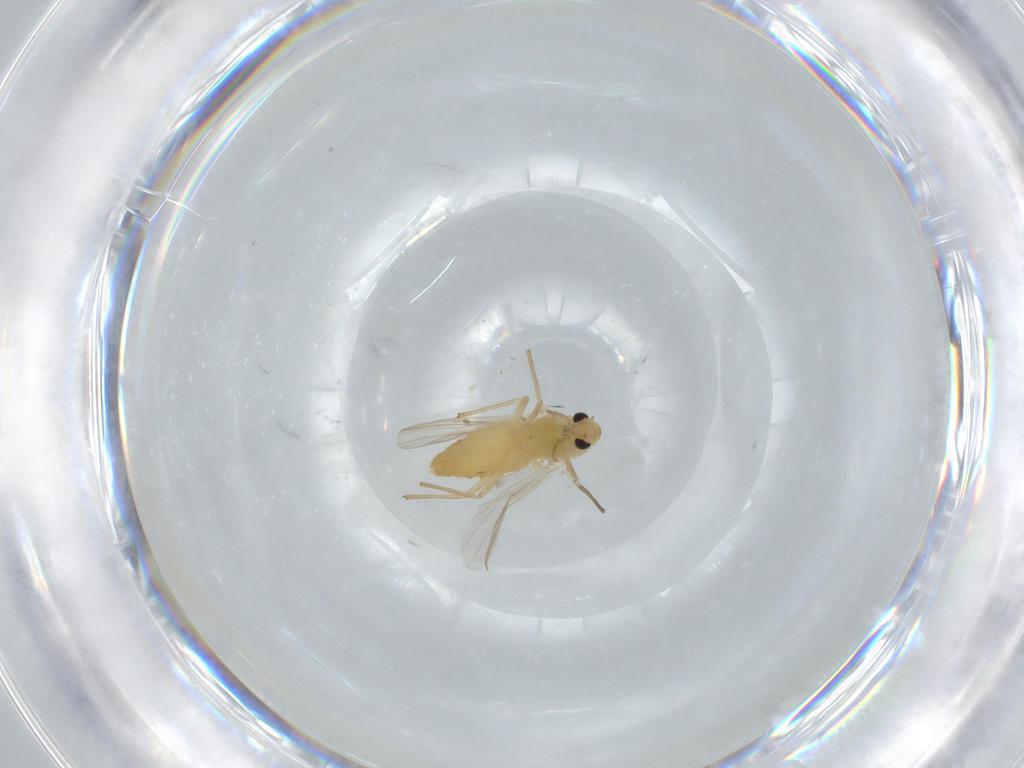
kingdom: Animalia
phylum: Arthropoda
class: Insecta
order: Diptera
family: Chironomidae
